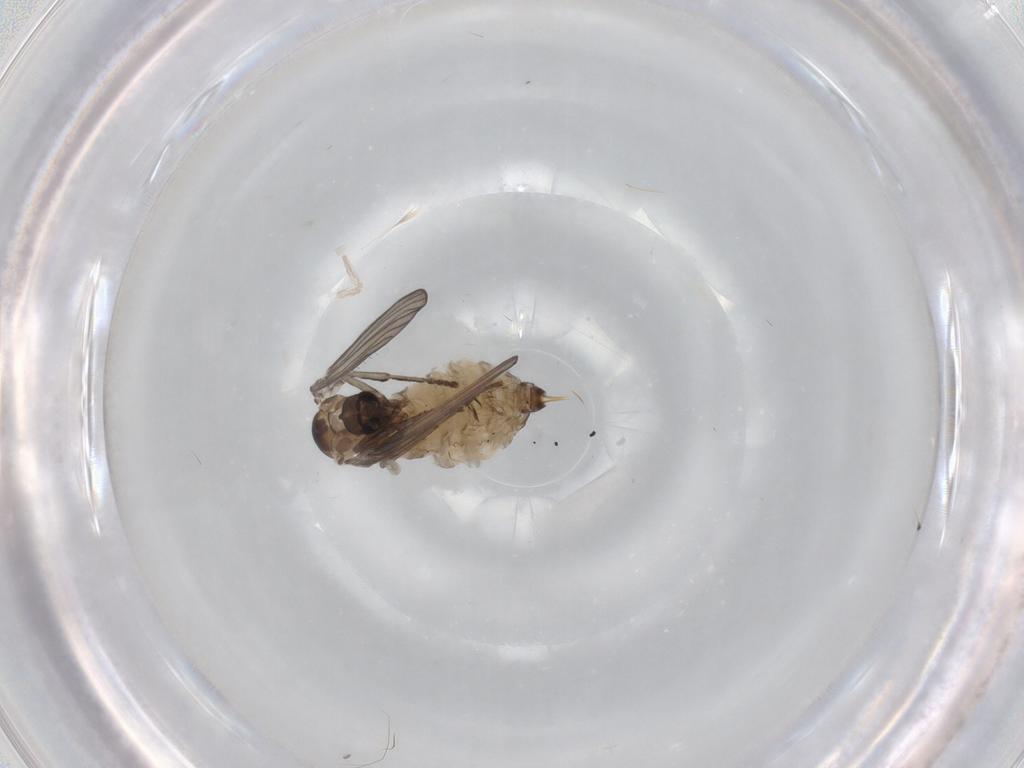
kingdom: Animalia
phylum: Arthropoda
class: Insecta
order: Diptera
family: Psychodidae
